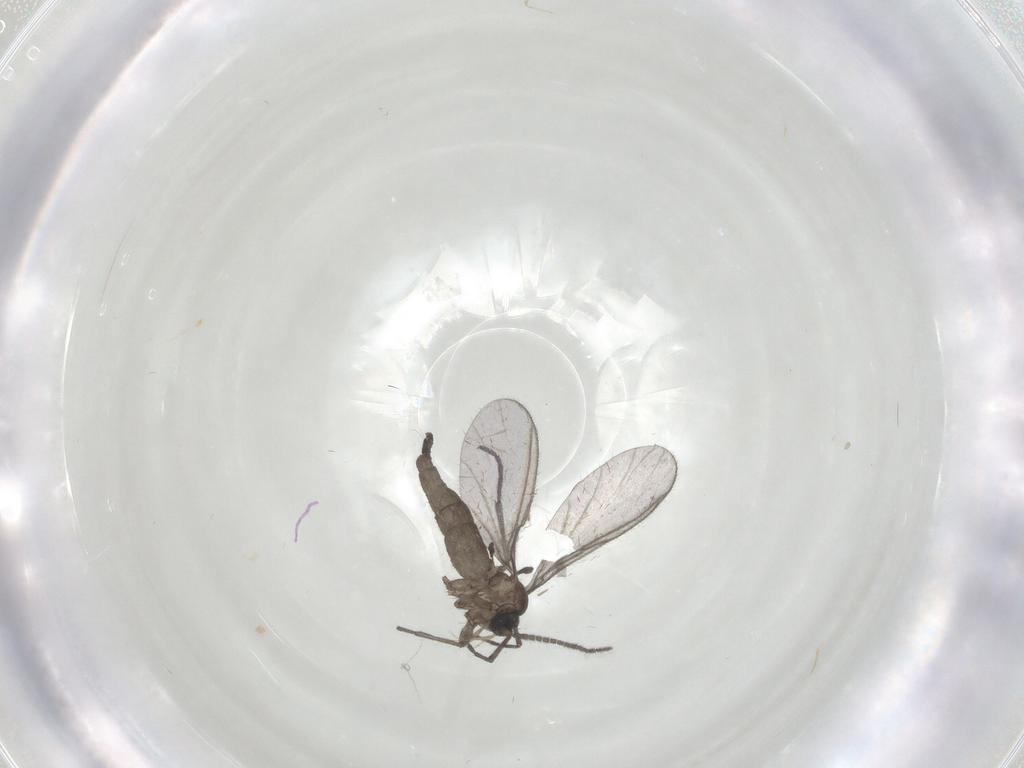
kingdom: Animalia
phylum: Arthropoda
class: Insecta
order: Diptera
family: Sciaridae
